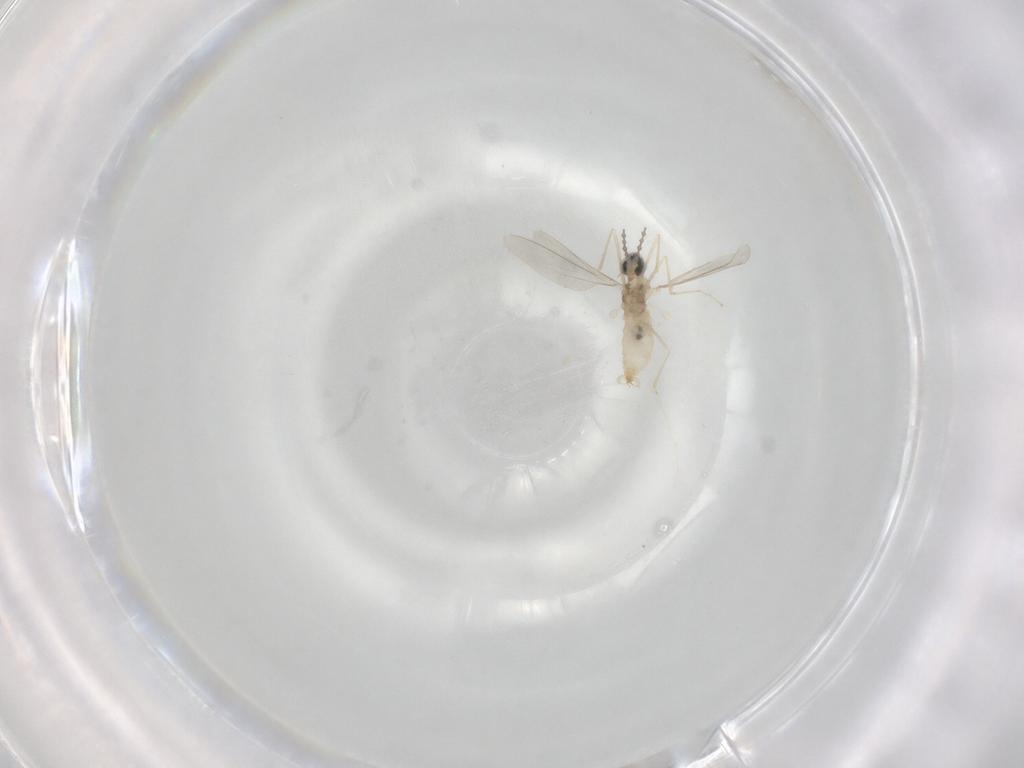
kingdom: Animalia
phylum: Arthropoda
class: Insecta
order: Diptera
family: Cecidomyiidae
